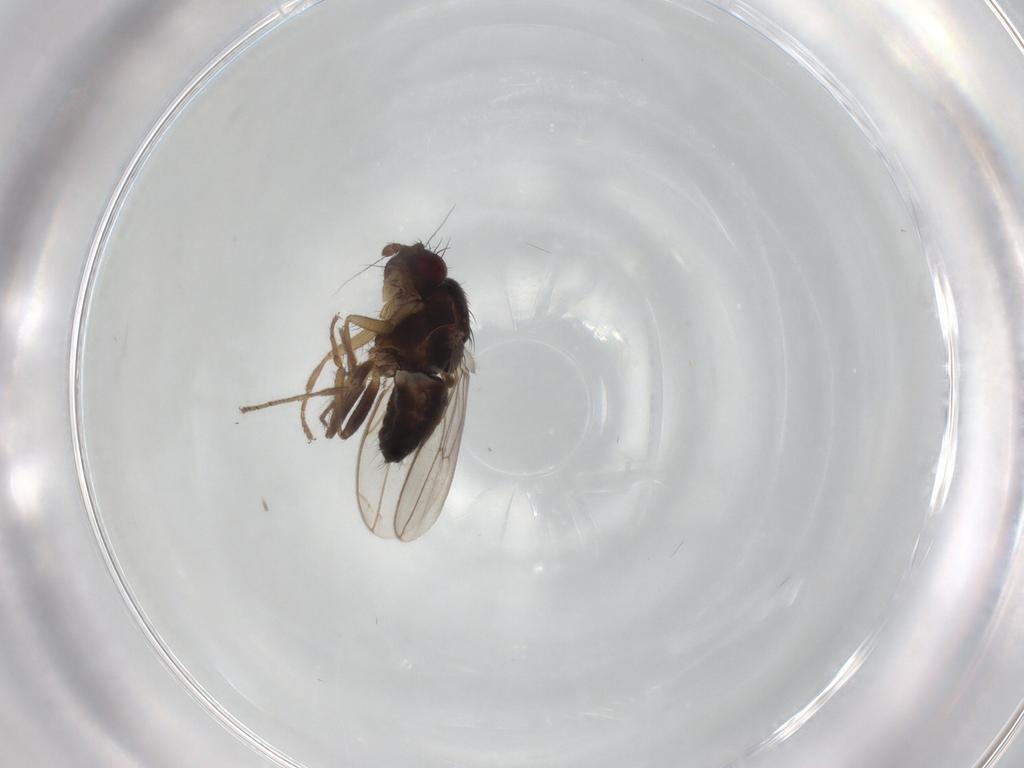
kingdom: Animalia
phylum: Arthropoda
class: Insecta
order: Diptera
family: Sphaeroceridae
